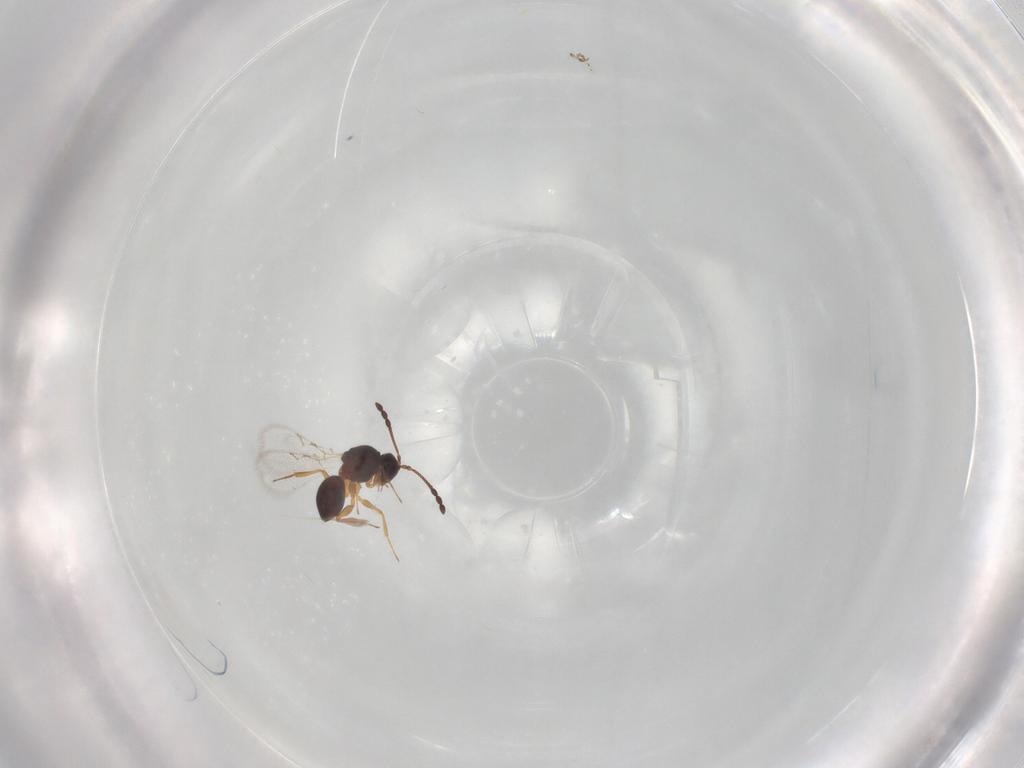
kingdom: Animalia
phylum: Arthropoda
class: Insecta
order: Hymenoptera
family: Figitidae
